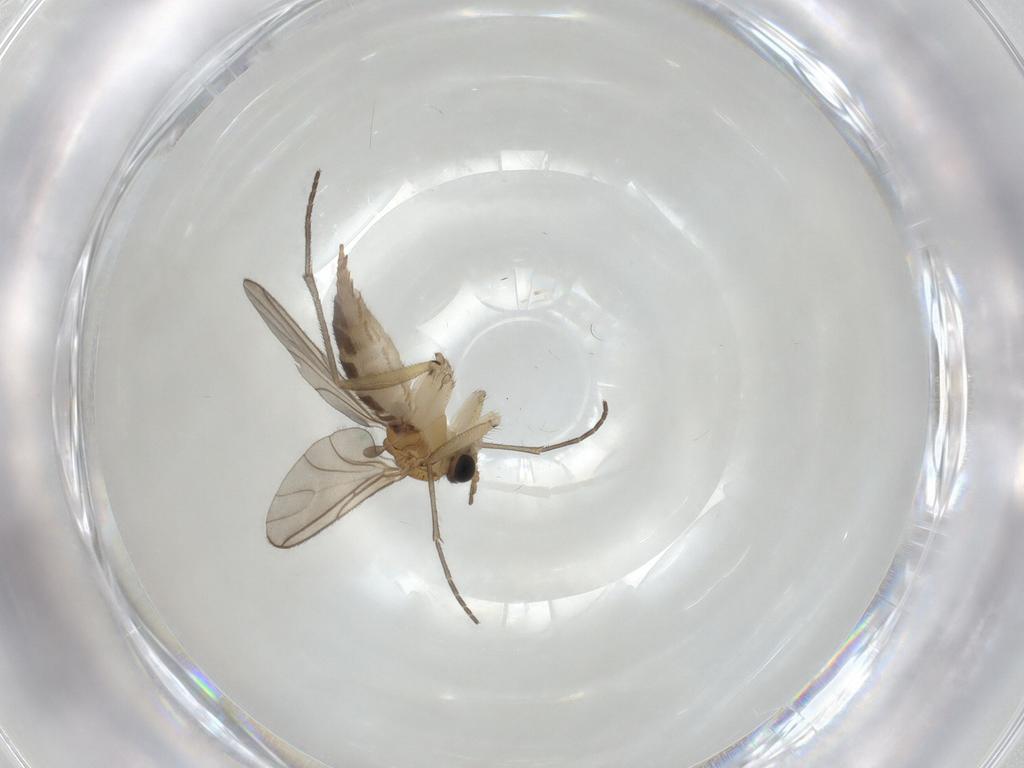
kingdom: Animalia
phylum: Arthropoda
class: Insecta
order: Diptera
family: Sciaridae
